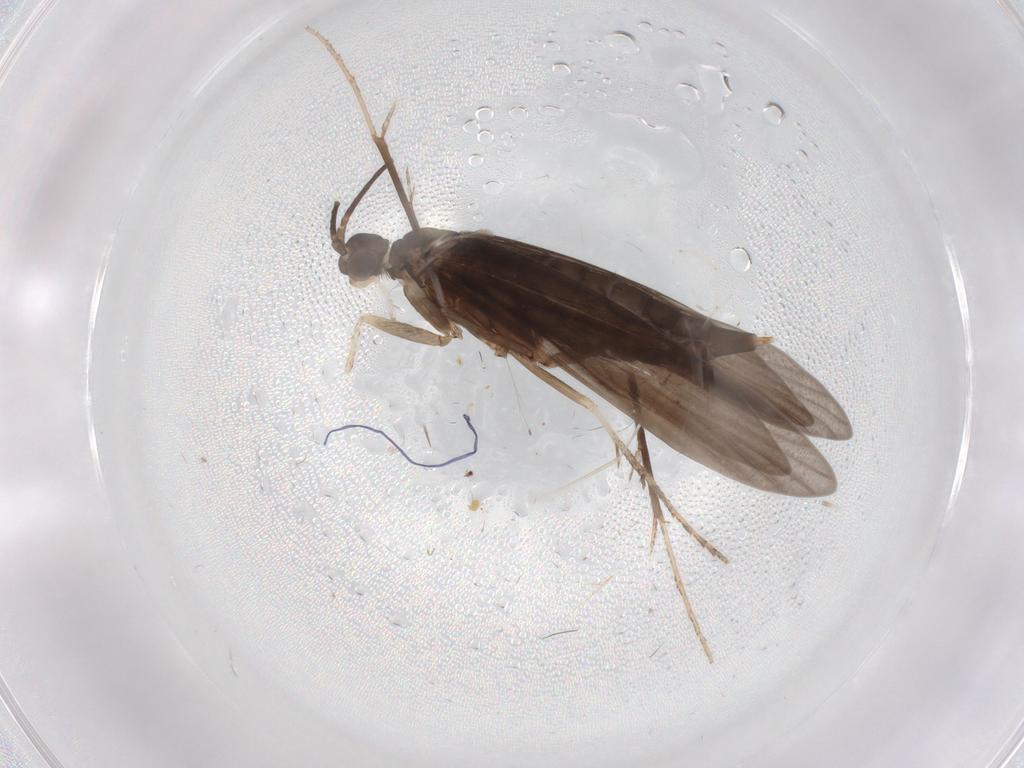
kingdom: Animalia
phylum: Arthropoda
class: Insecta
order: Trichoptera
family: Xiphocentronidae
